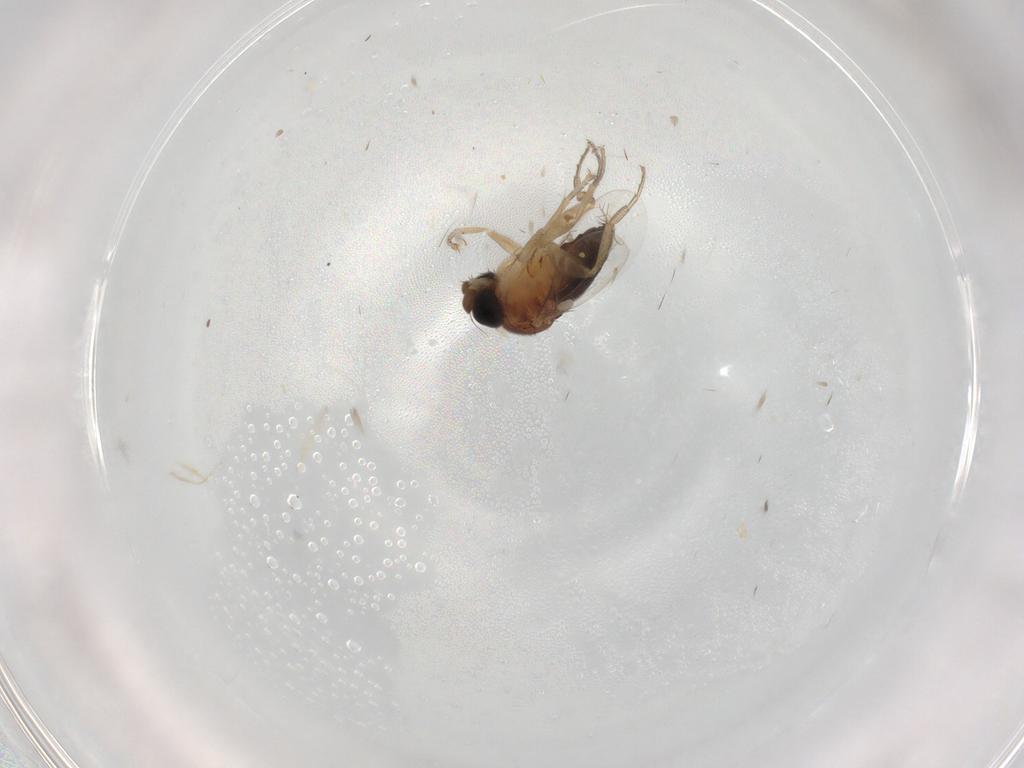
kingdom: Animalia
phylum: Arthropoda
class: Insecta
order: Diptera
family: Phoridae
